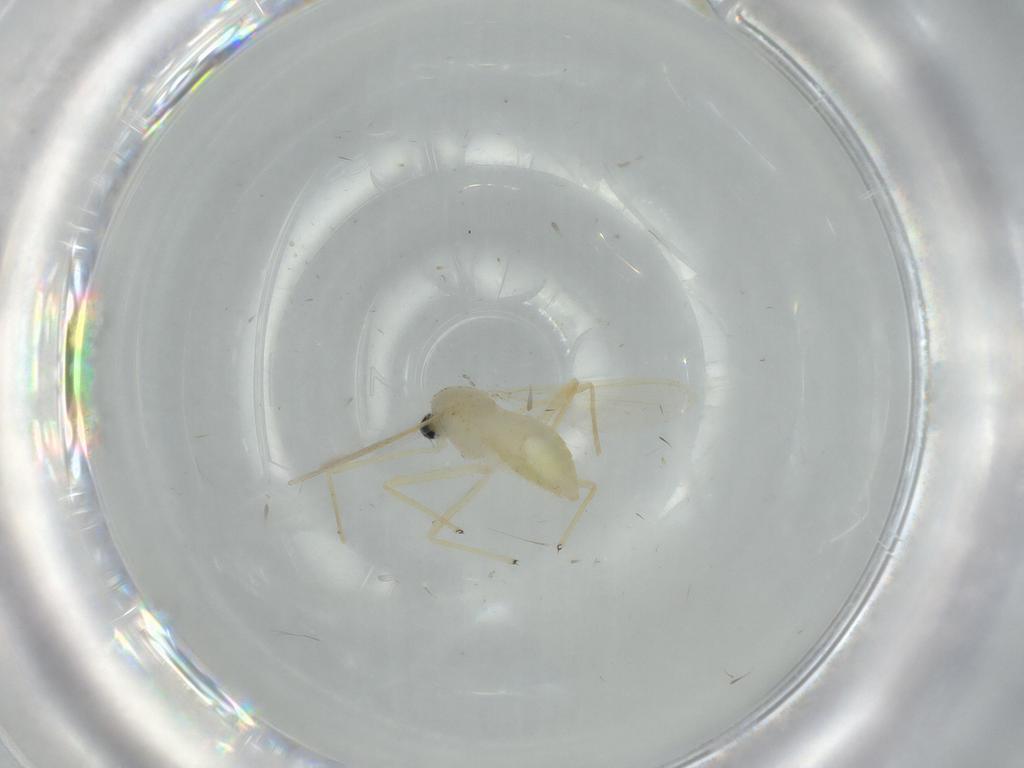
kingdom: Animalia
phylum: Arthropoda
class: Insecta
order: Diptera
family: Chironomidae
